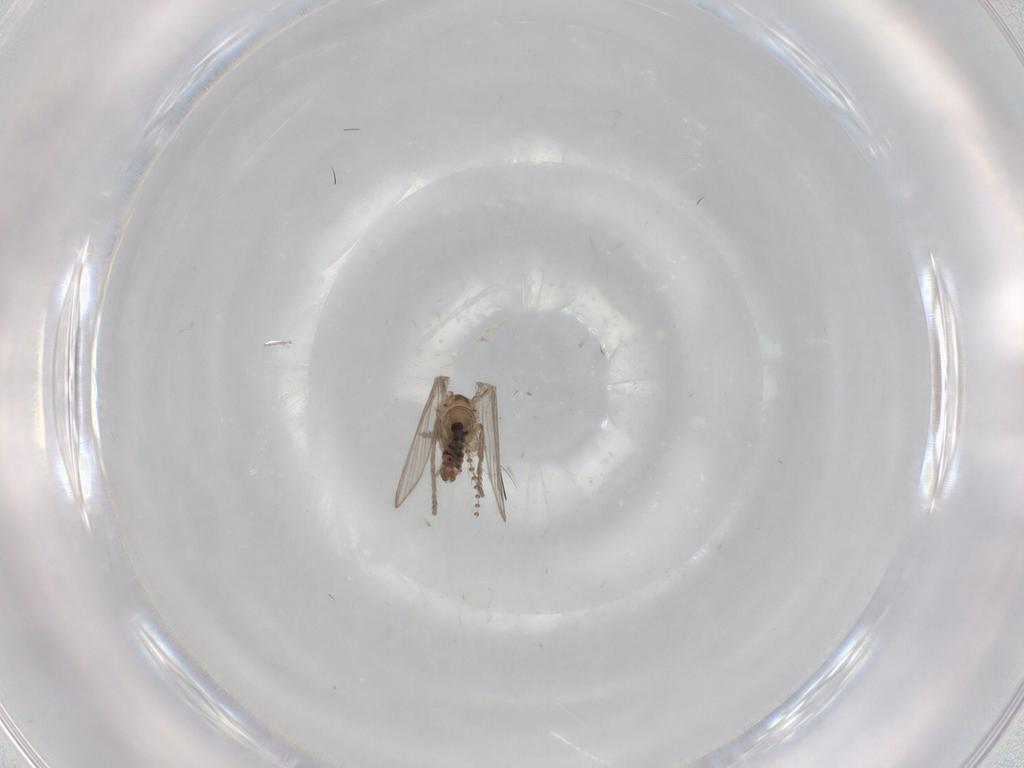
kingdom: Animalia
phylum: Arthropoda
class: Insecta
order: Diptera
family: Psychodidae
